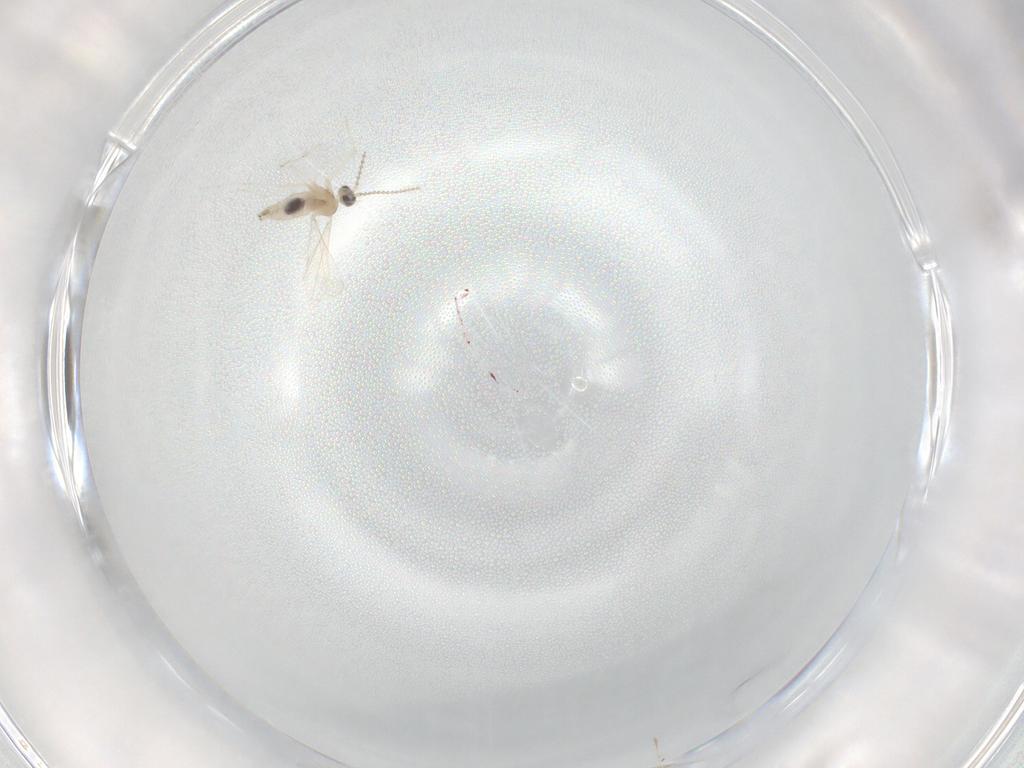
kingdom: Animalia
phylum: Arthropoda
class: Insecta
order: Diptera
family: Cecidomyiidae
